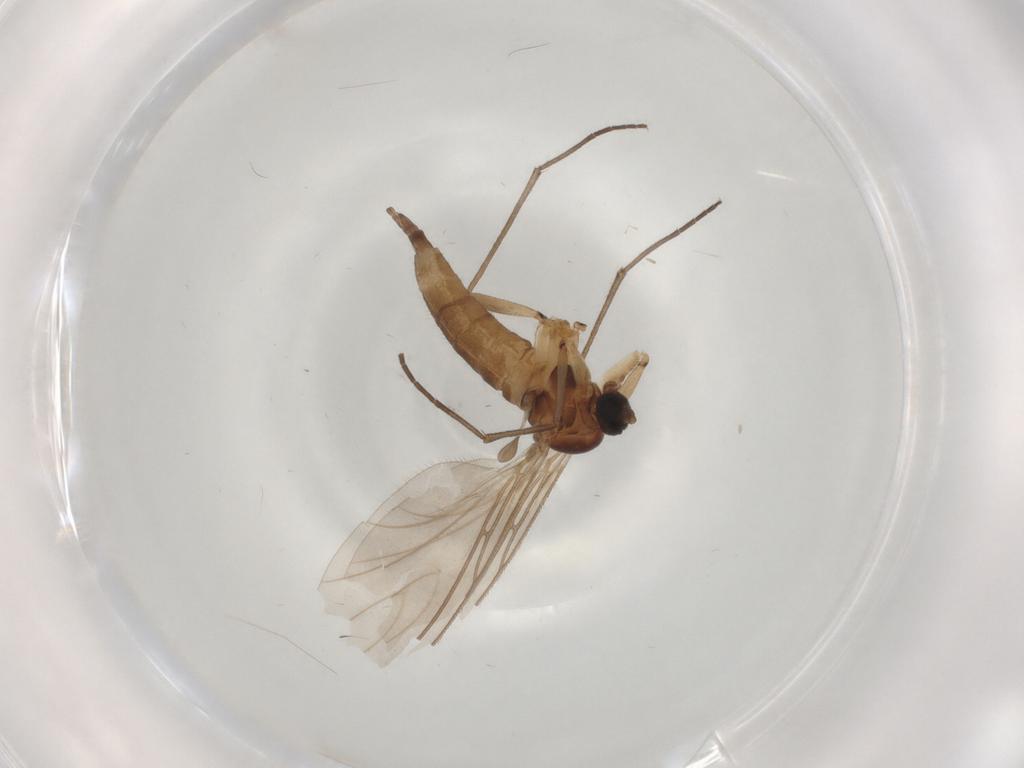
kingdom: Animalia
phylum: Arthropoda
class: Insecta
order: Diptera
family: Sciaridae
